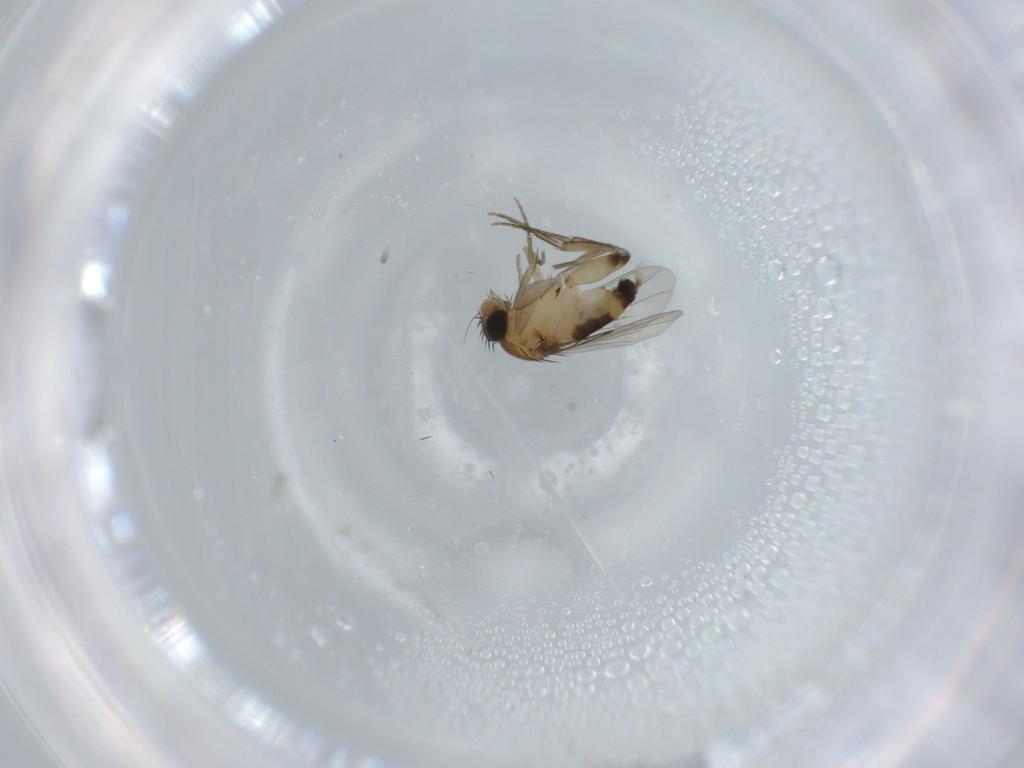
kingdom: Animalia
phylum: Arthropoda
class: Insecta
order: Diptera
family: Phoridae
